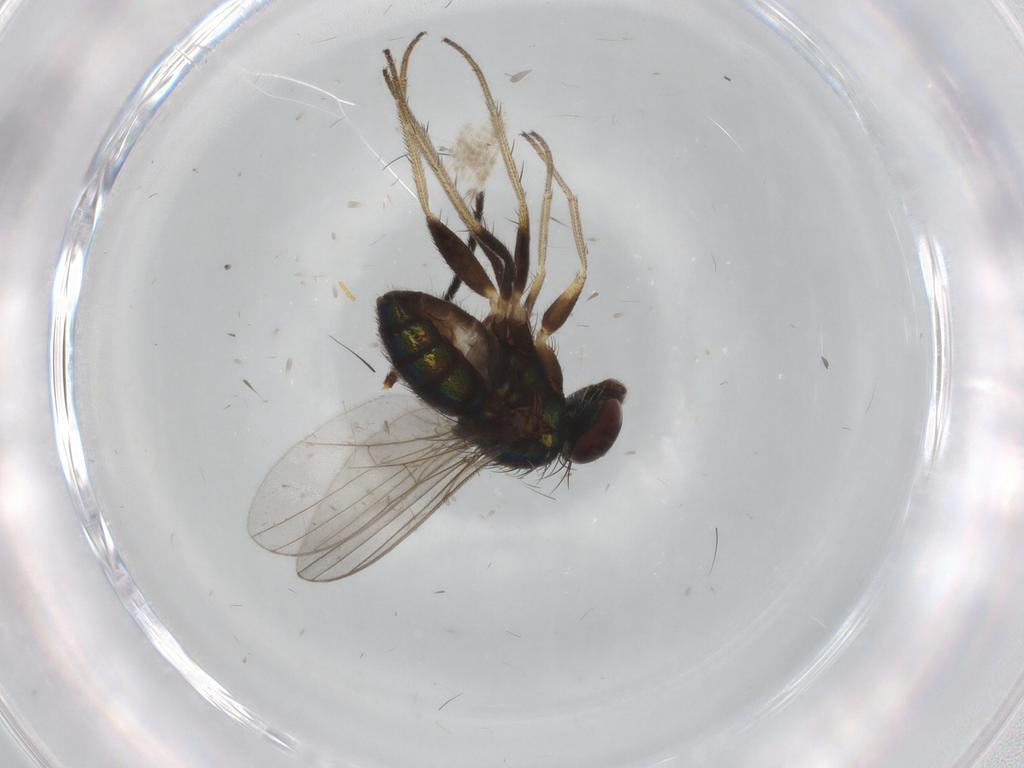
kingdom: Animalia
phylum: Arthropoda
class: Insecta
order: Diptera
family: Dolichopodidae
